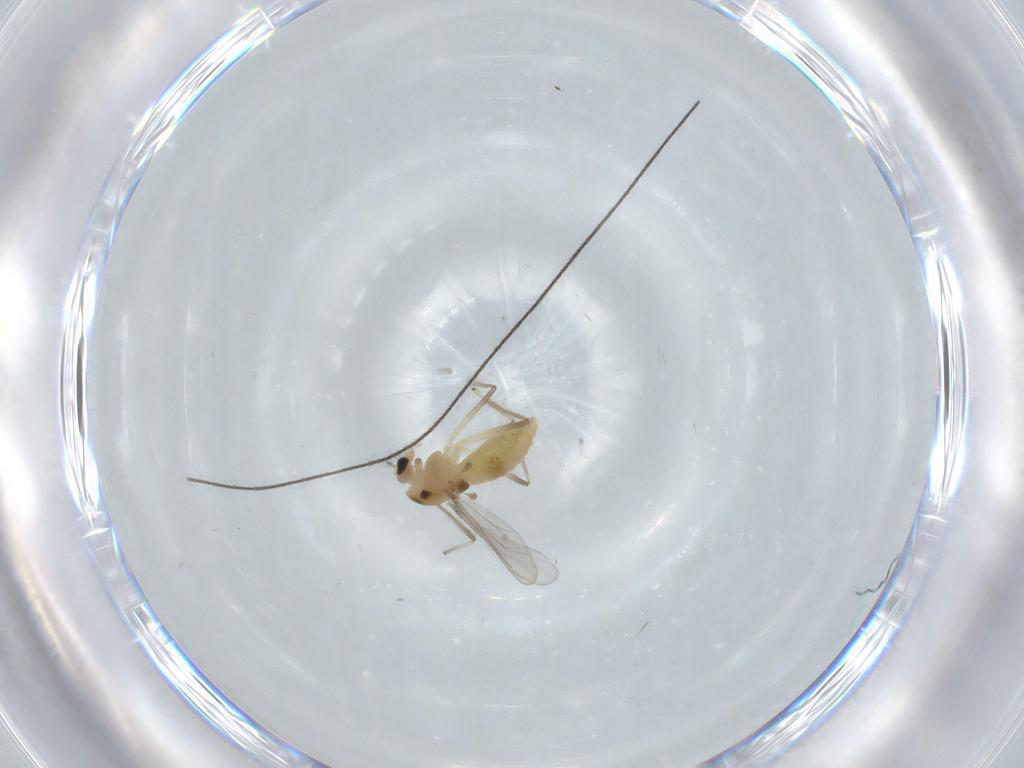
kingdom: Animalia
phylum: Arthropoda
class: Insecta
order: Diptera
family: Chironomidae
